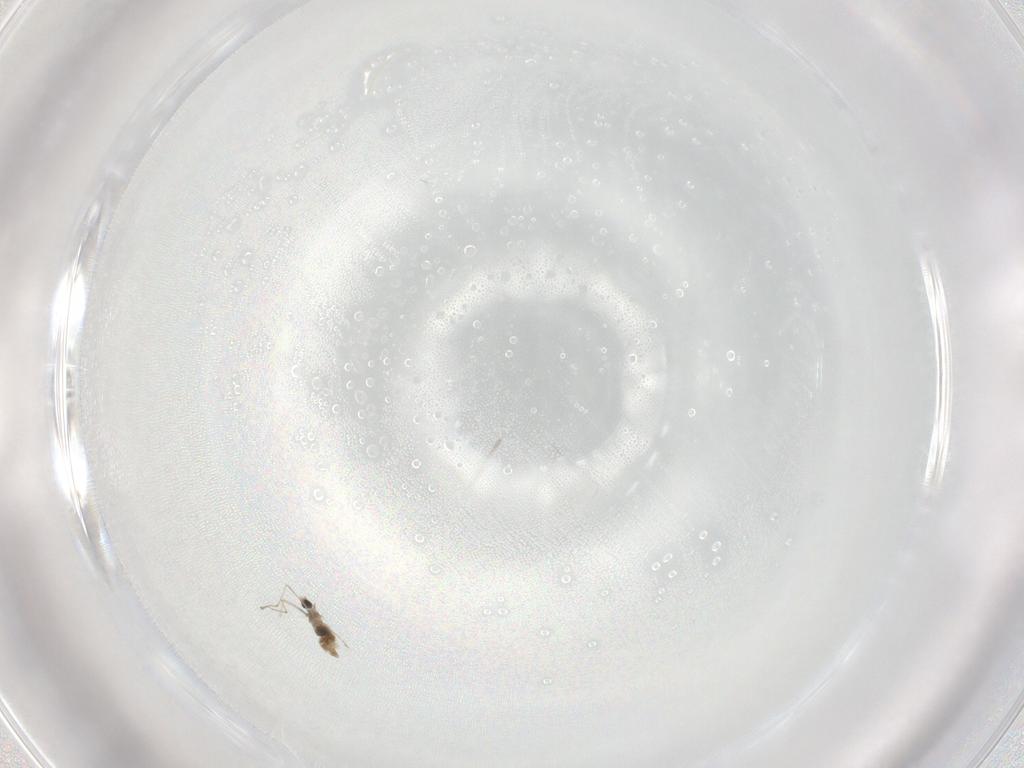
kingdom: Animalia
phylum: Arthropoda
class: Insecta
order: Diptera
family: Cecidomyiidae
